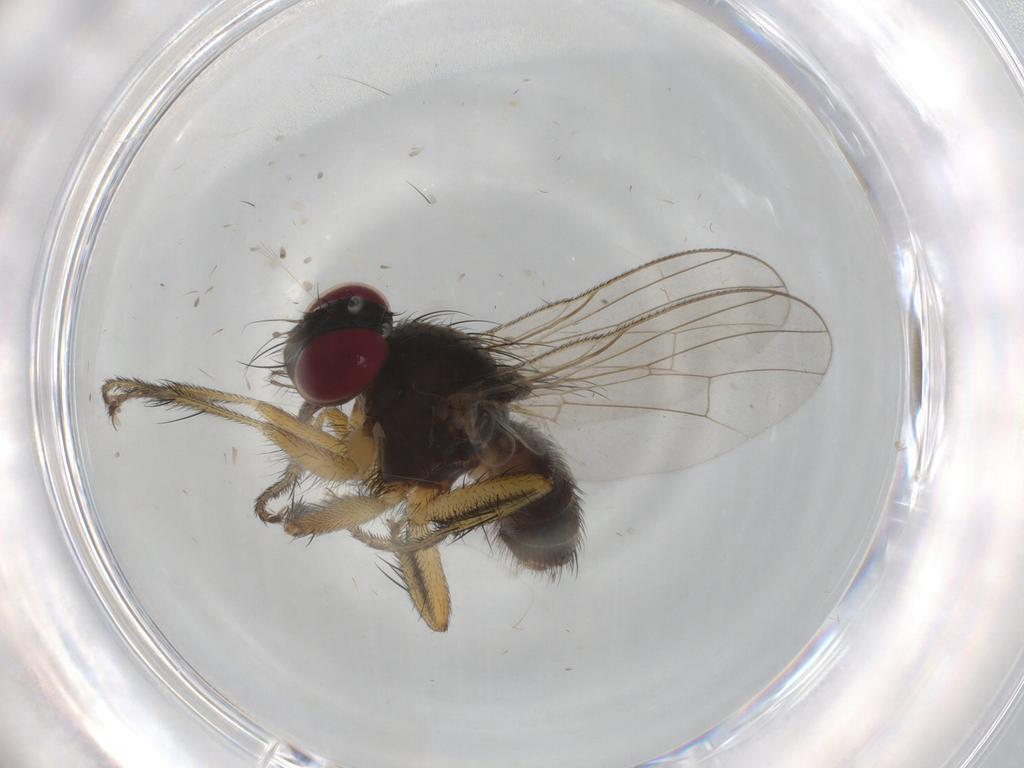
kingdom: Animalia
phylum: Arthropoda
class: Insecta
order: Diptera
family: Muscidae
